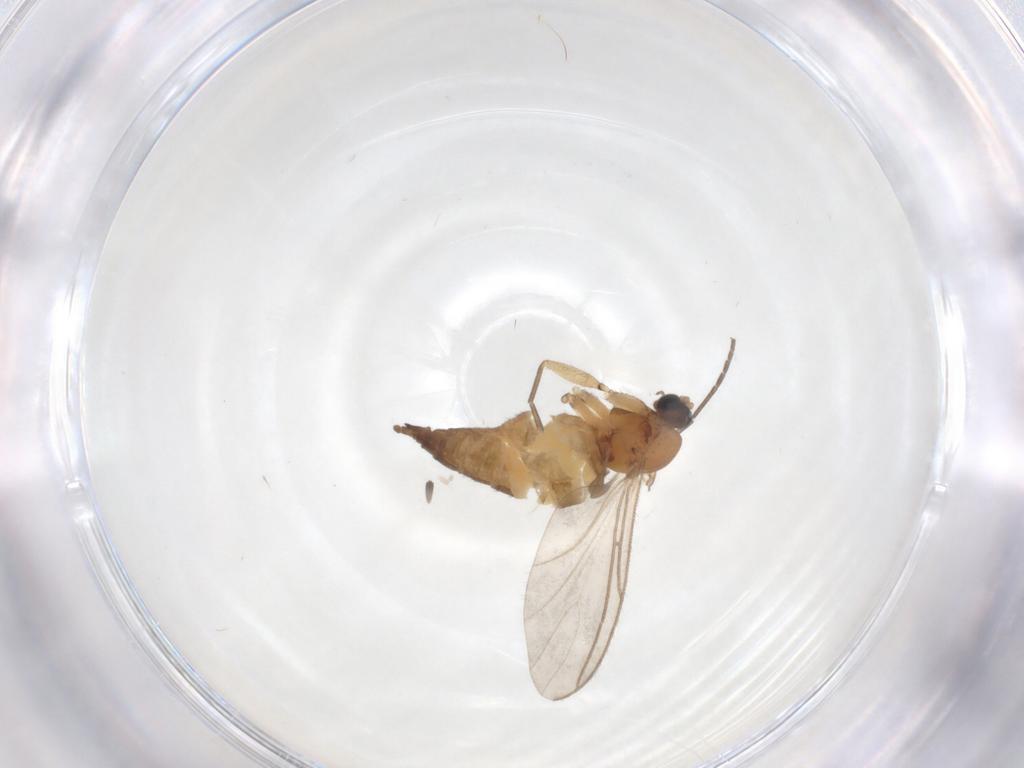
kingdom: Animalia
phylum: Arthropoda
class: Insecta
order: Diptera
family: Sciaridae
